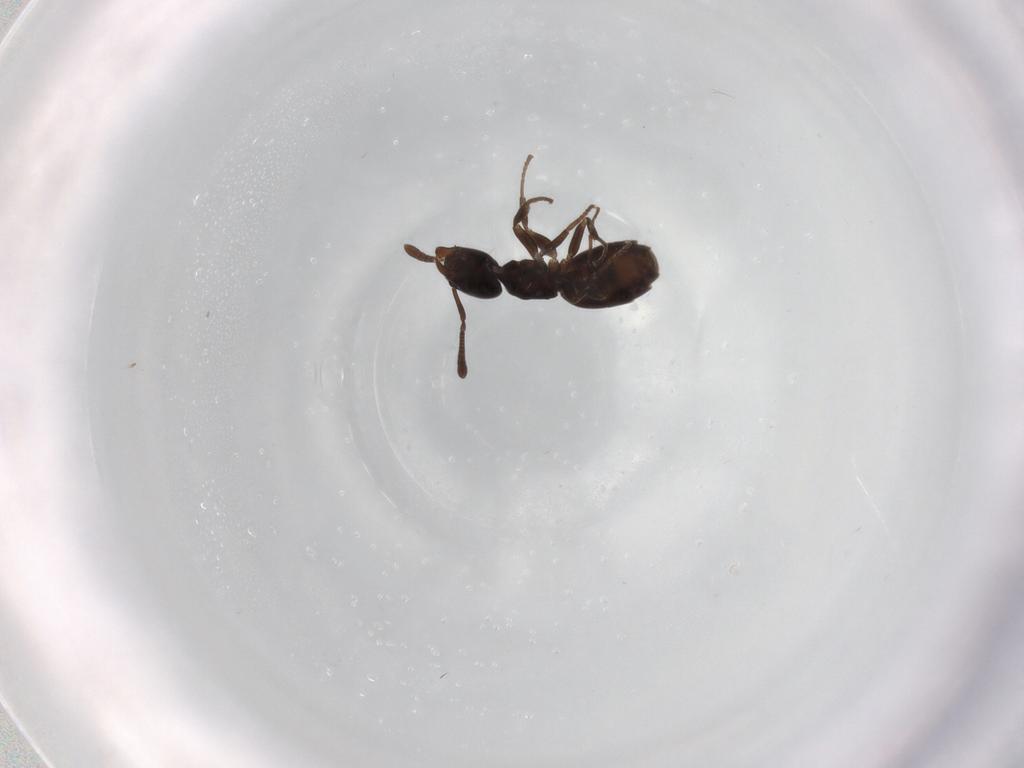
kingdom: Animalia
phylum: Arthropoda
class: Insecta
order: Hymenoptera
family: Formicidae
